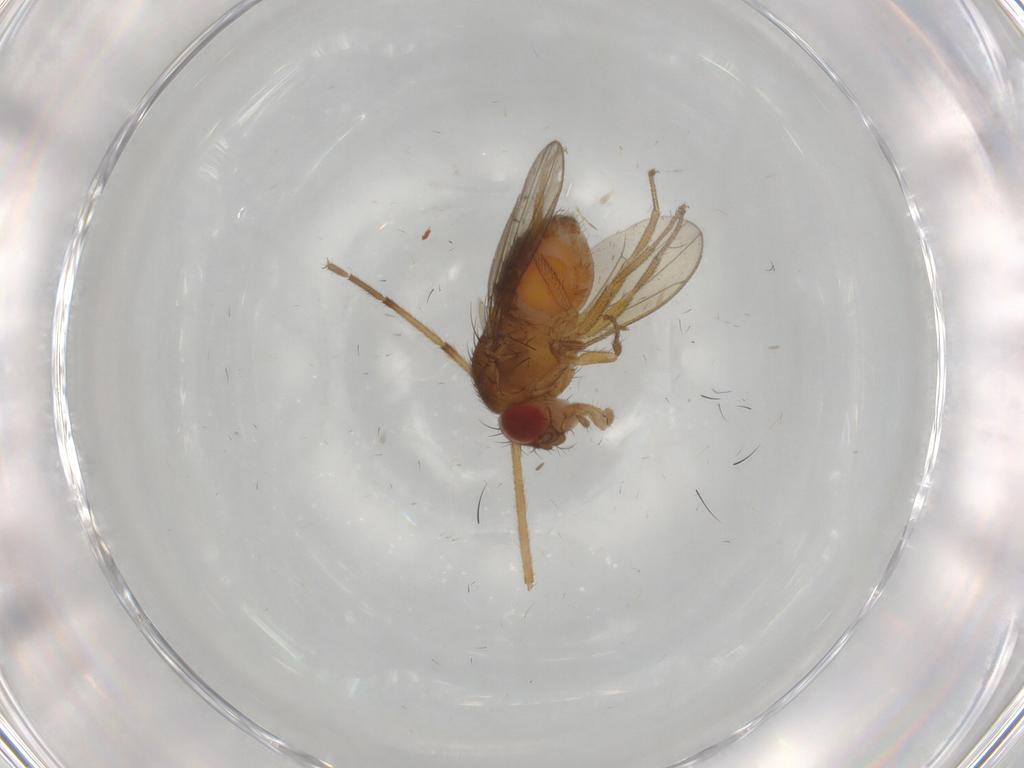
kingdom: Animalia
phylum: Arthropoda
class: Insecta
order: Diptera
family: Drosophilidae
